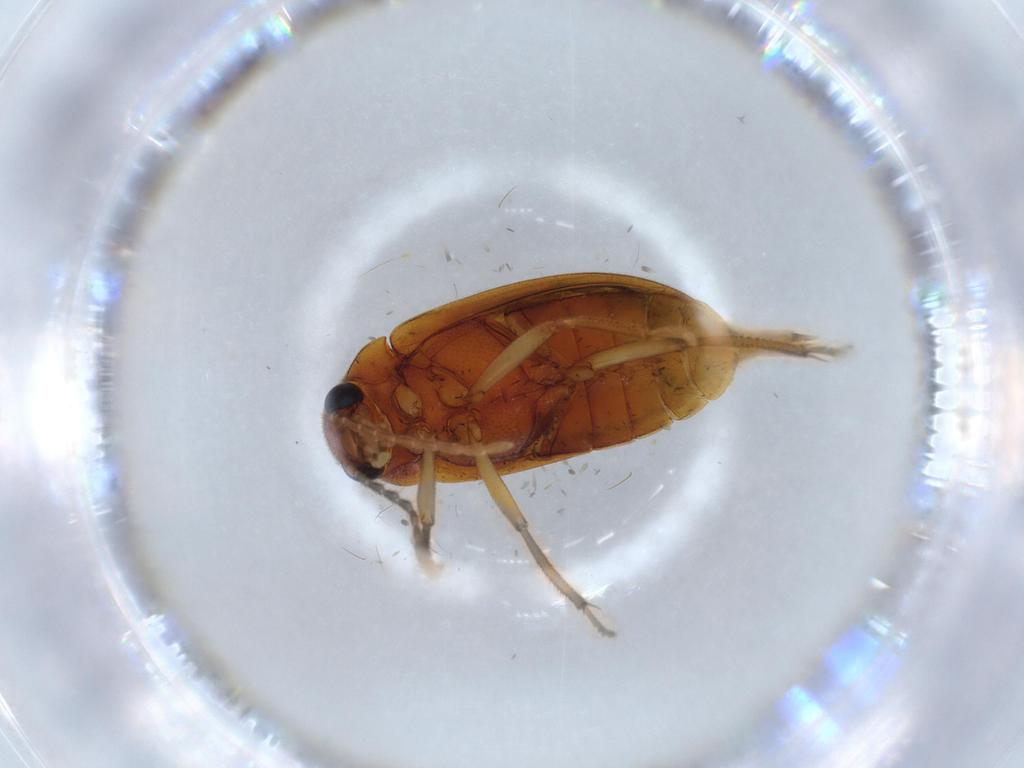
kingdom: Animalia
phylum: Arthropoda
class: Insecta
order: Coleoptera
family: Ptilodactylidae
